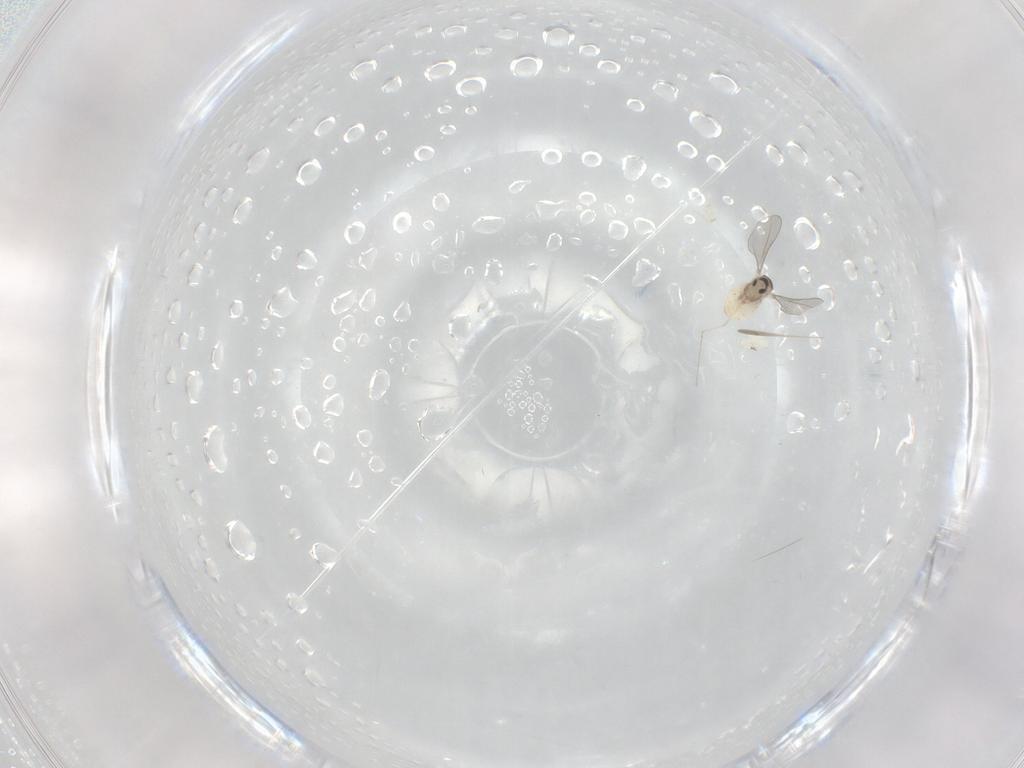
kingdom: Animalia
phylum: Arthropoda
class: Insecta
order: Diptera
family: Cecidomyiidae
